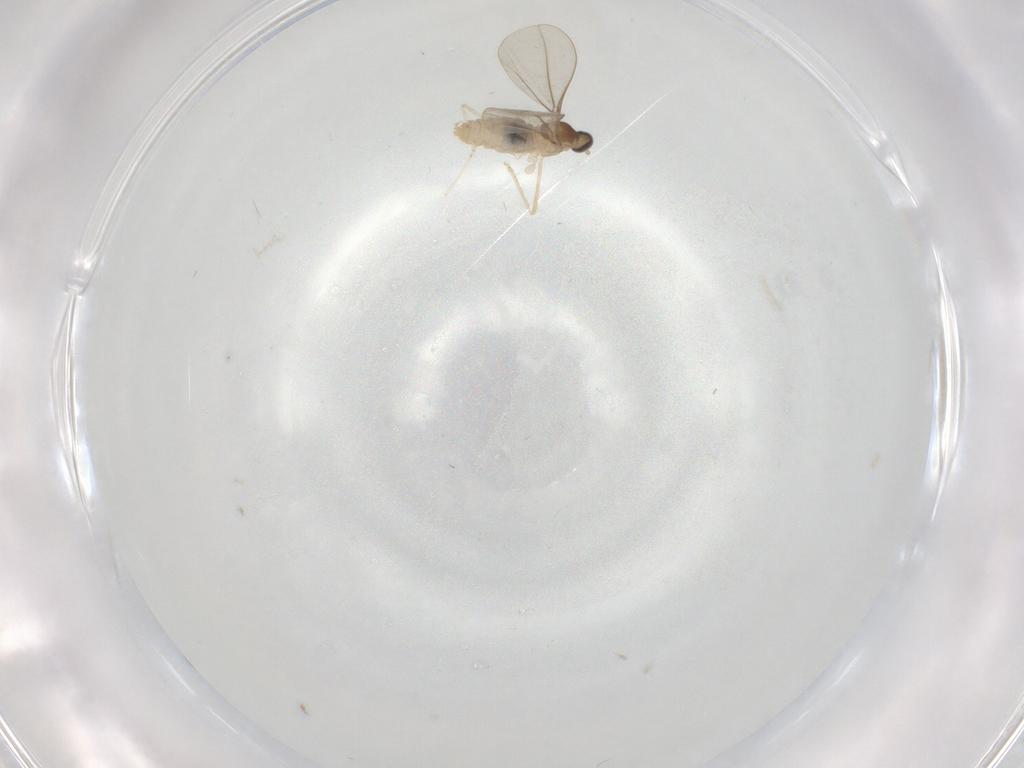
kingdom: Animalia
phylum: Arthropoda
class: Insecta
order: Diptera
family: Cecidomyiidae
